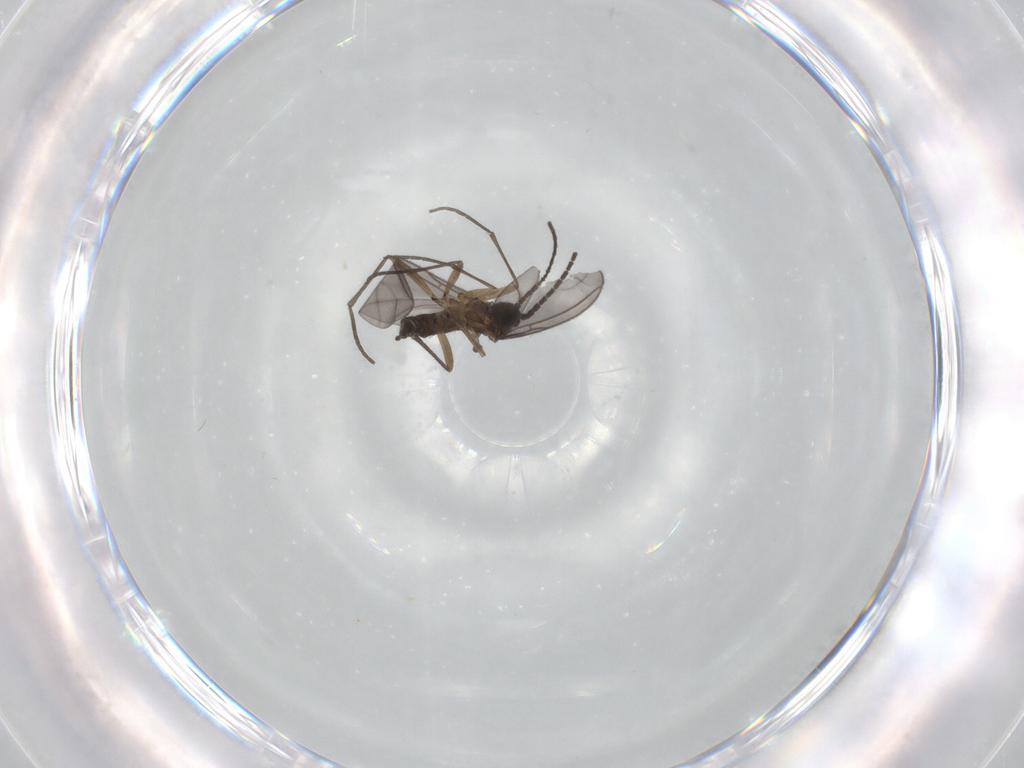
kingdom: Animalia
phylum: Arthropoda
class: Insecta
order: Diptera
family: Sciaridae
